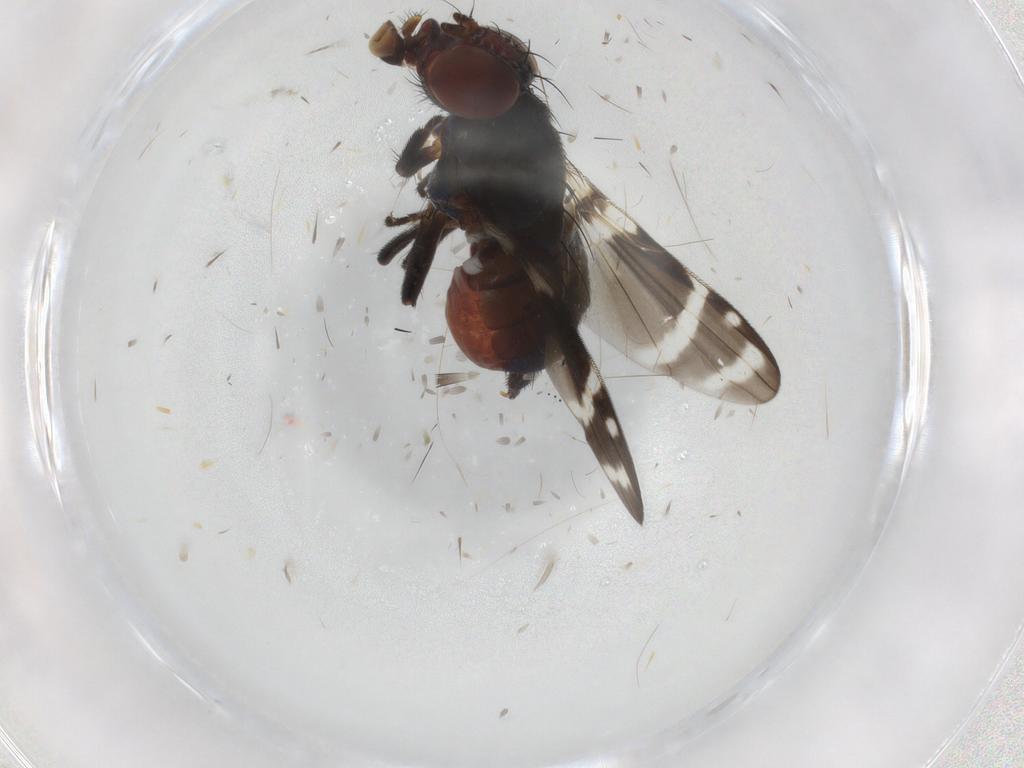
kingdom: Animalia
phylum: Arthropoda
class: Insecta
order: Diptera
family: Ulidiidae
